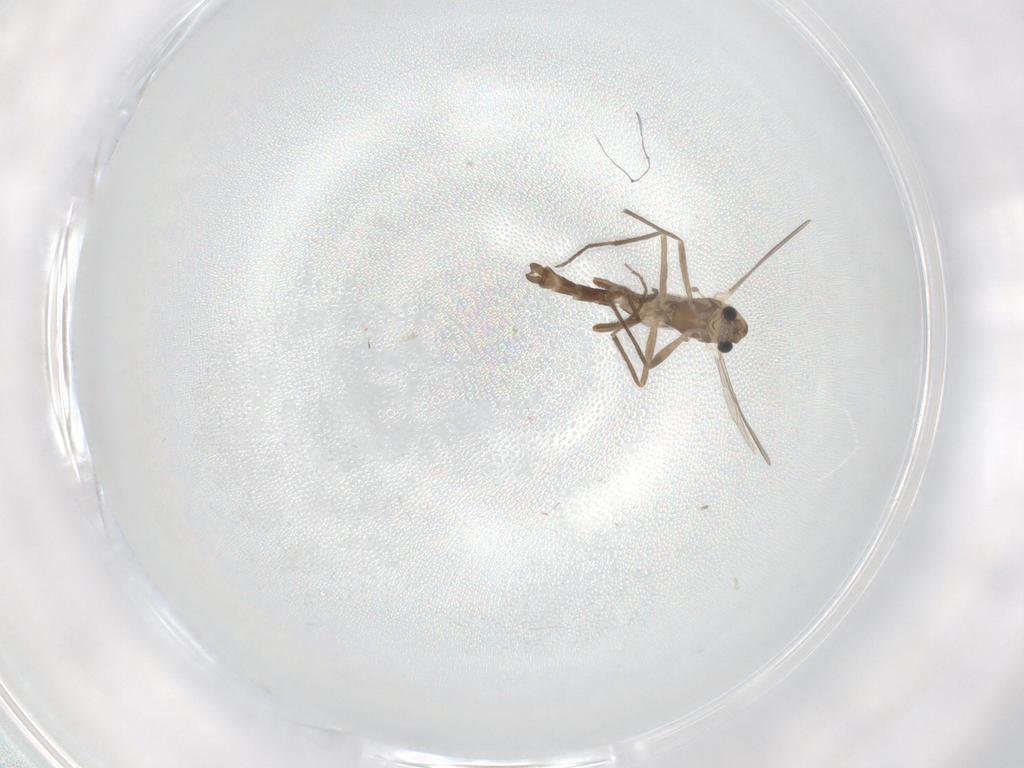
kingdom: Animalia
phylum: Arthropoda
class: Insecta
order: Diptera
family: Chironomidae
